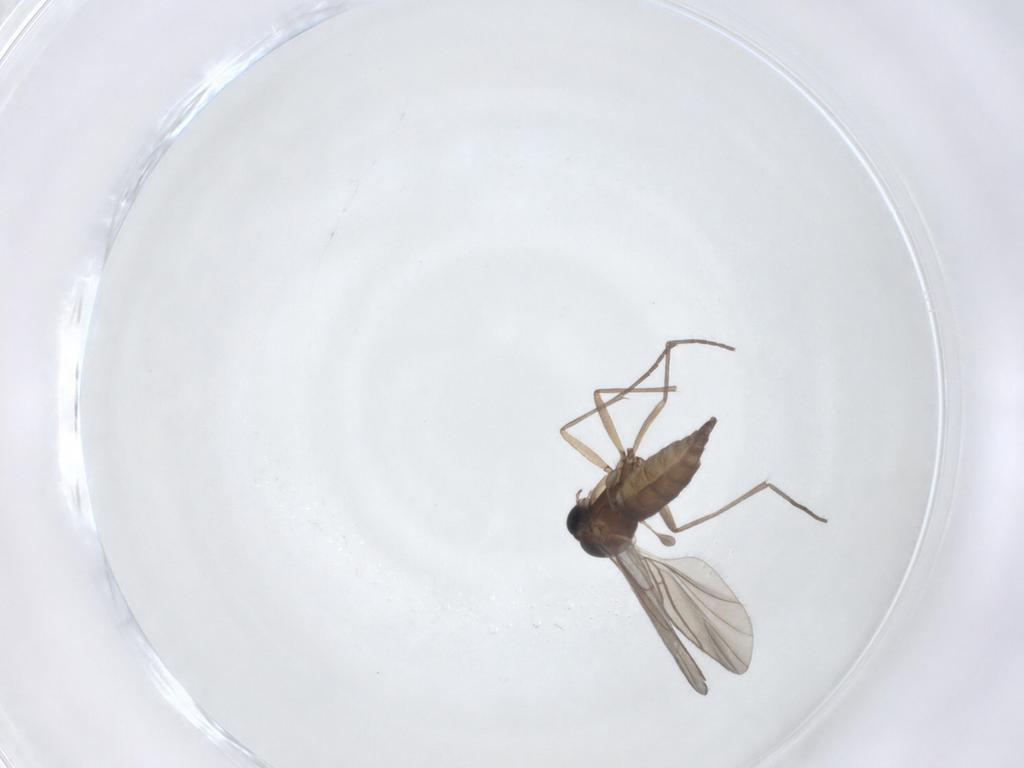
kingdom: Animalia
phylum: Arthropoda
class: Insecta
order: Diptera
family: Sciaridae
